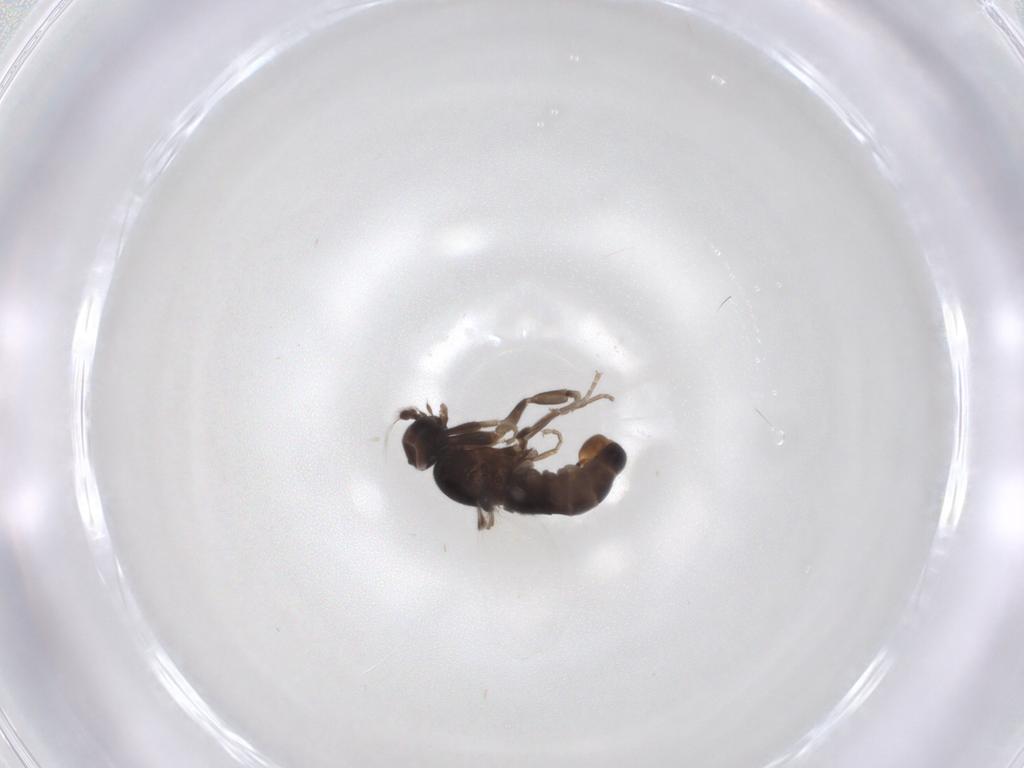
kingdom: Animalia
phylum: Arthropoda
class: Insecta
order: Diptera
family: Phoridae
